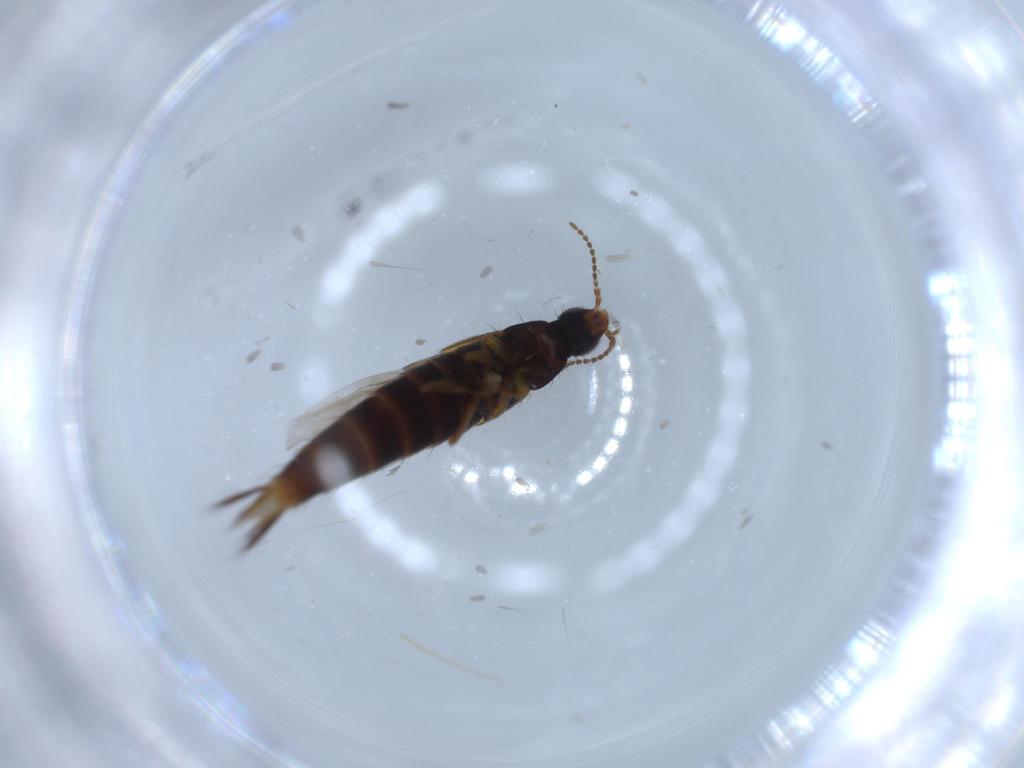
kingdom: Animalia
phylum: Arthropoda
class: Insecta
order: Coleoptera
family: Staphylinidae
